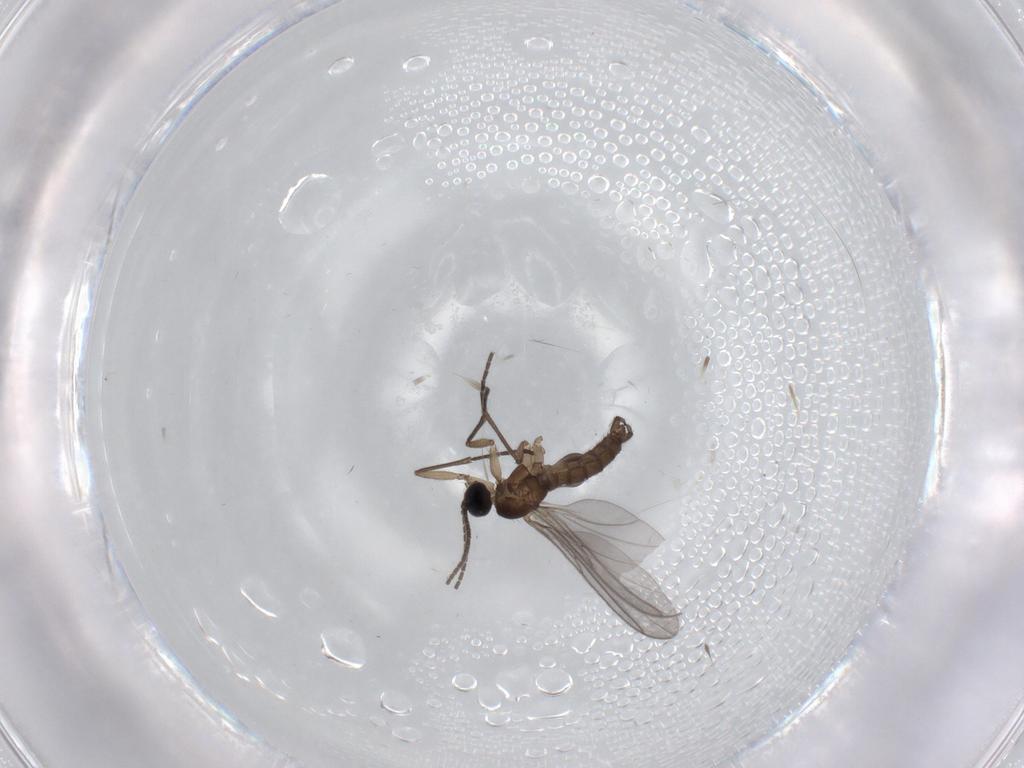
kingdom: Animalia
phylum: Arthropoda
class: Insecta
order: Diptera
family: Sciaridae
